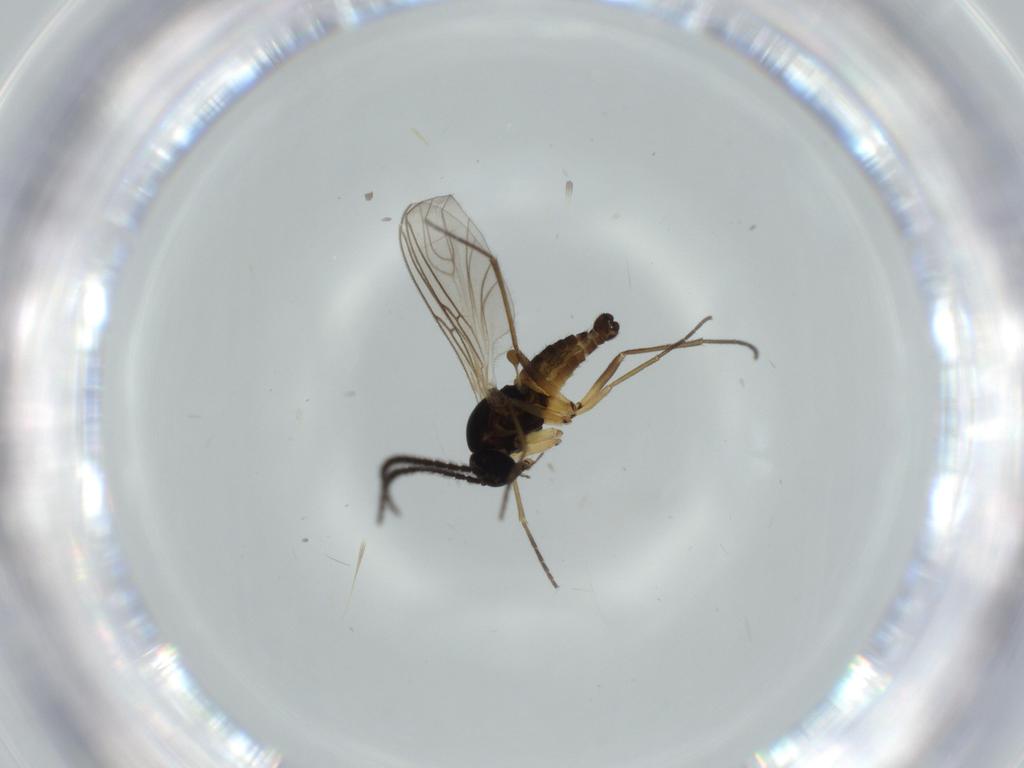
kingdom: Animalia
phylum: Arthropoda
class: Insecta
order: Diptera
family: Sciaridae
